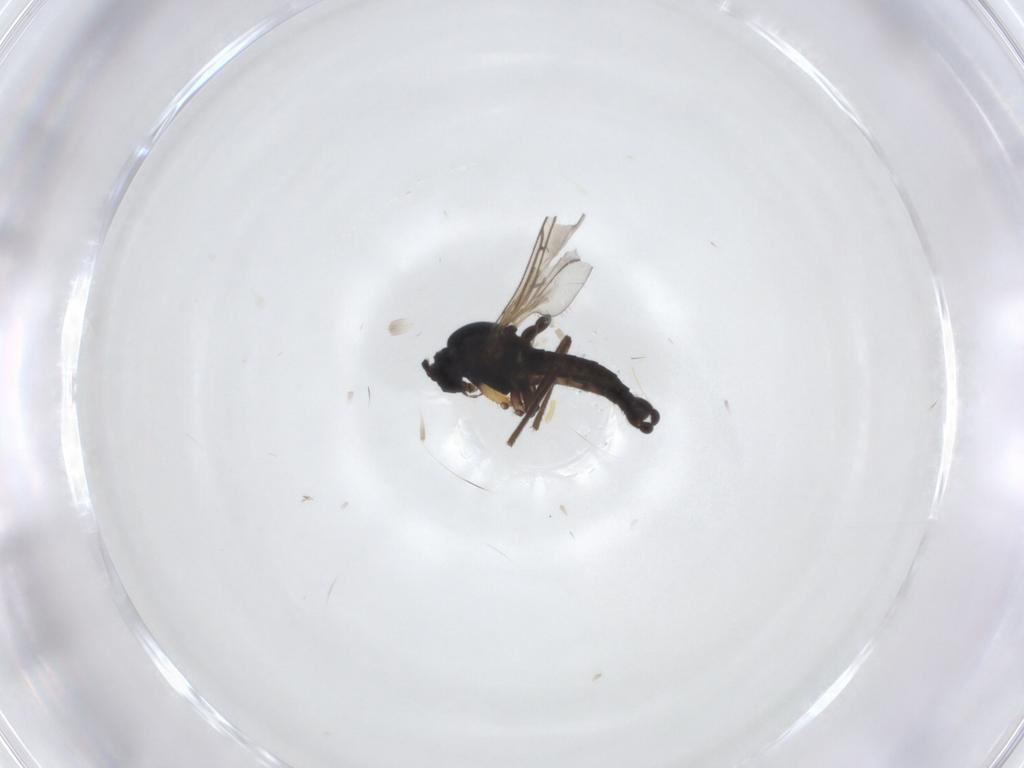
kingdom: Animalia
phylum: Arthropoda
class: Insecta
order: Diptera
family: Sciaridae
